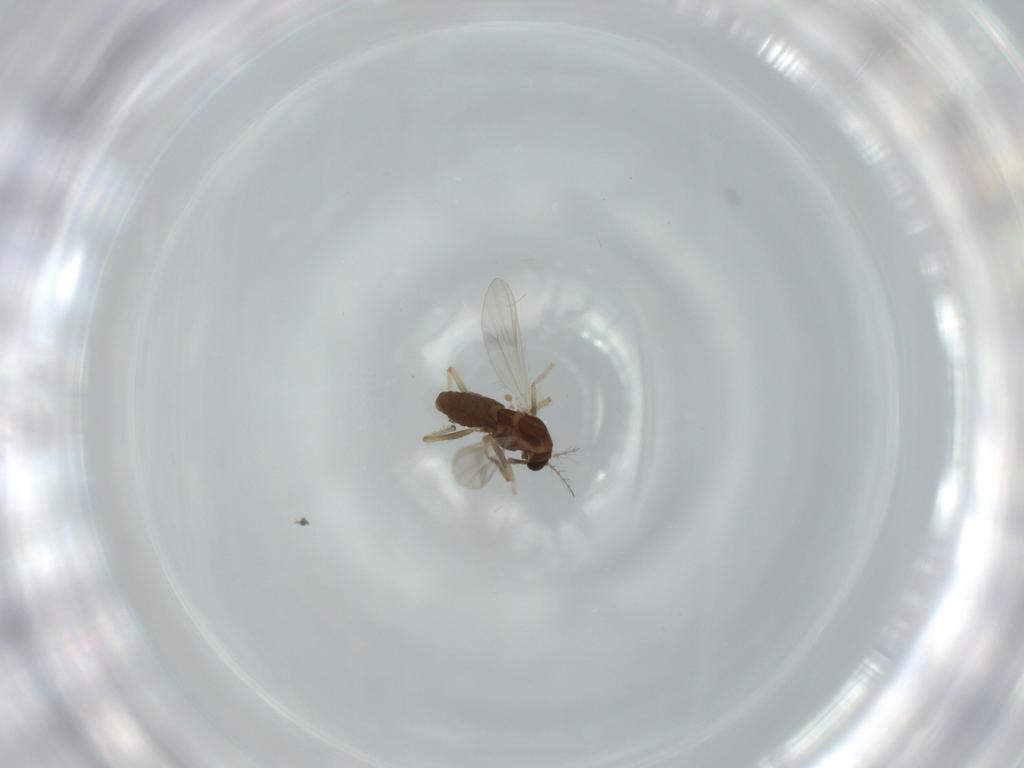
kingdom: Animalia
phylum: Arthropoda
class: Insecta
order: Diptera
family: Chironomidae
